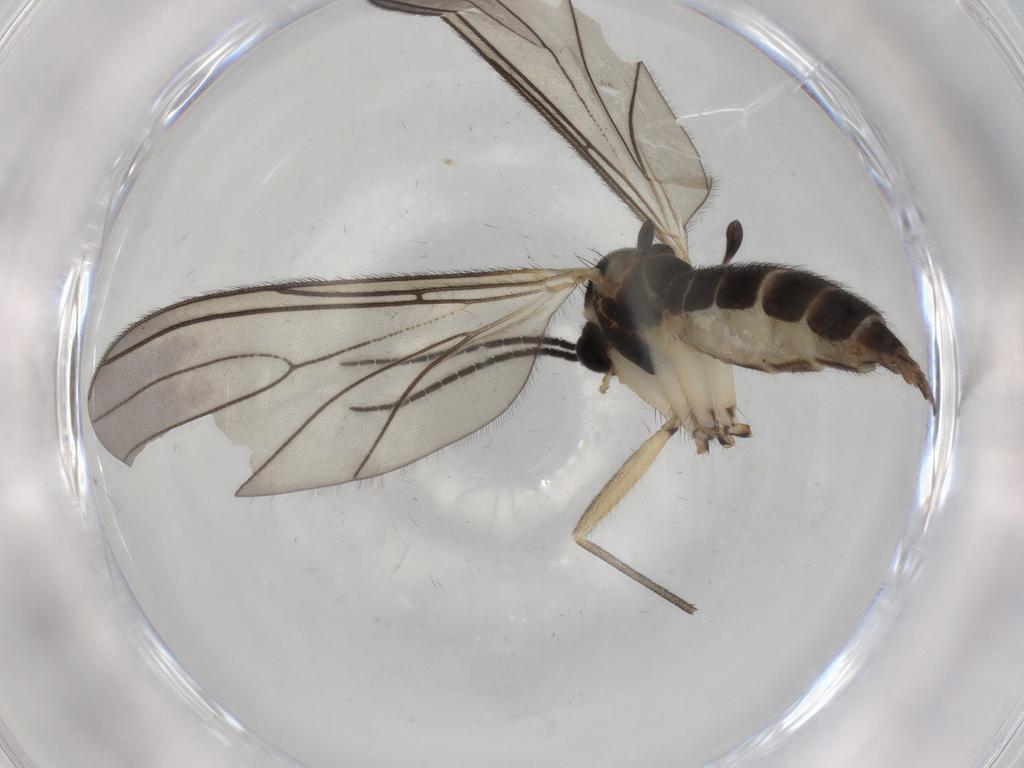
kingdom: Animalia
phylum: Arthropoda
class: Insecta
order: Diptera
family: Sciaridae
